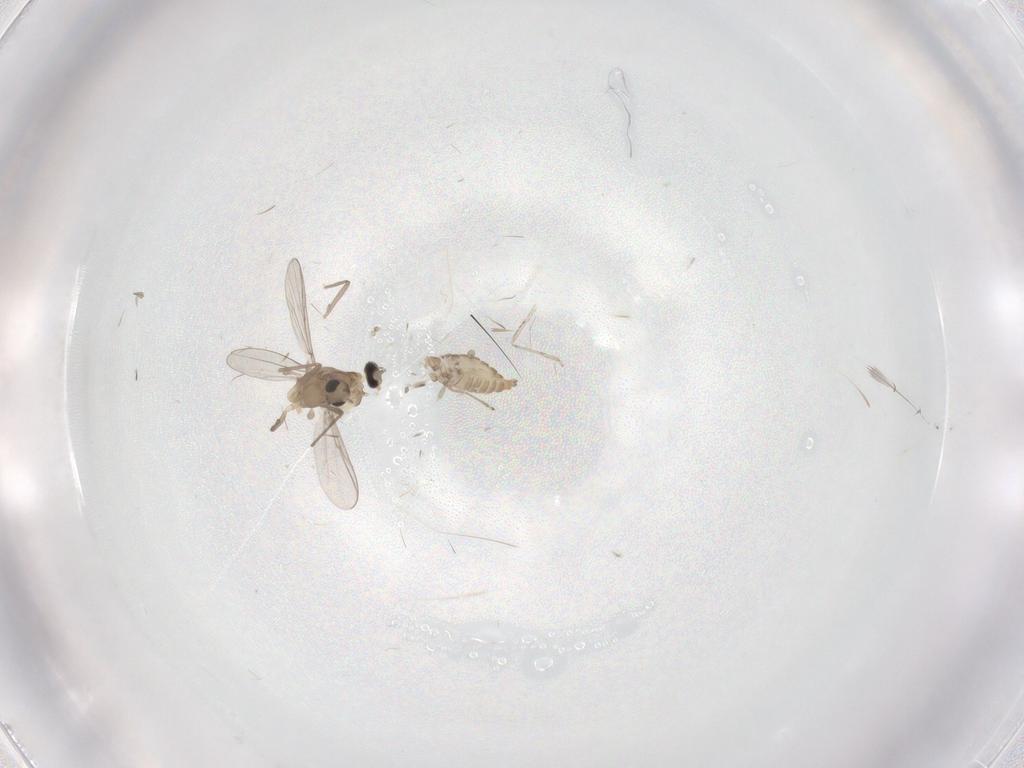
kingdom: Animalia
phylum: Arthropoda
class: Insecta
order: Diptera
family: Cecidomyiidae
